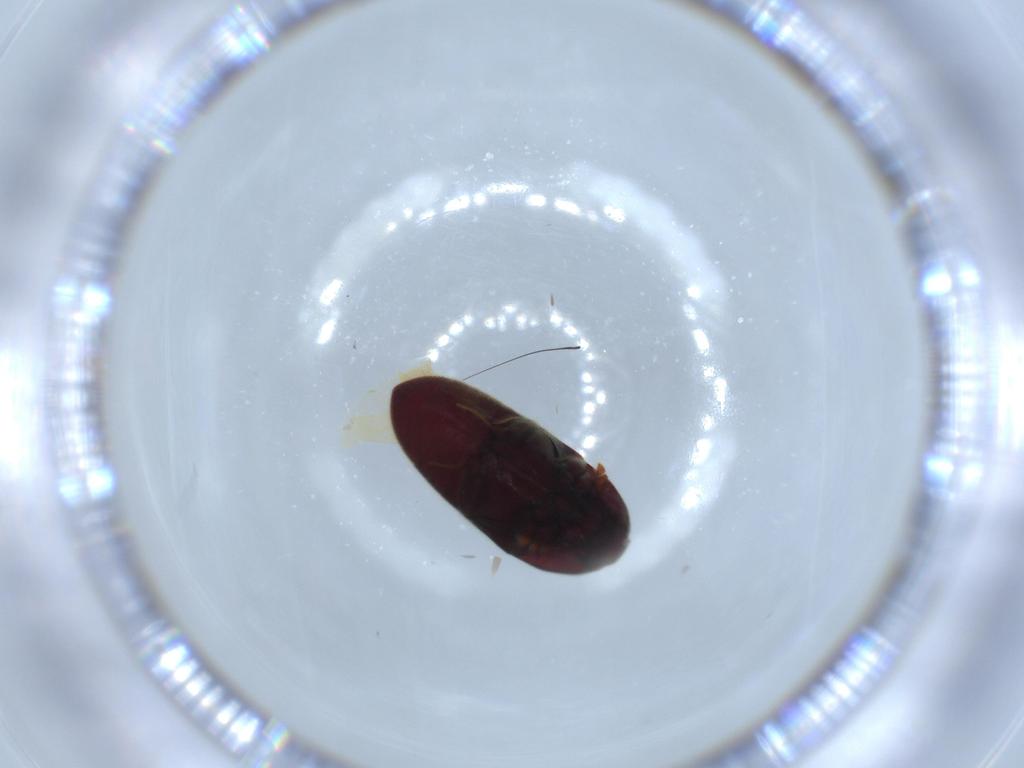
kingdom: Animalia
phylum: Arthropoda
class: Insecta
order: Coleoptera
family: Throscidae
